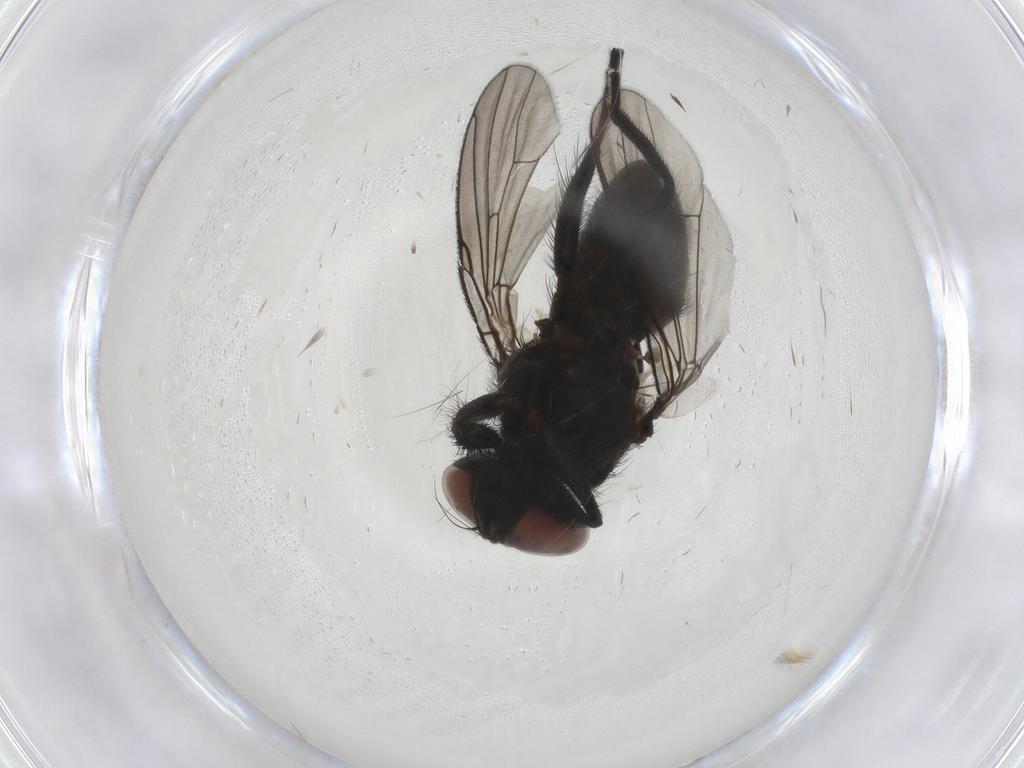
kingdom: Animalia
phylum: Arthropoda
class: Insecta
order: Diptera
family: Muscidae
